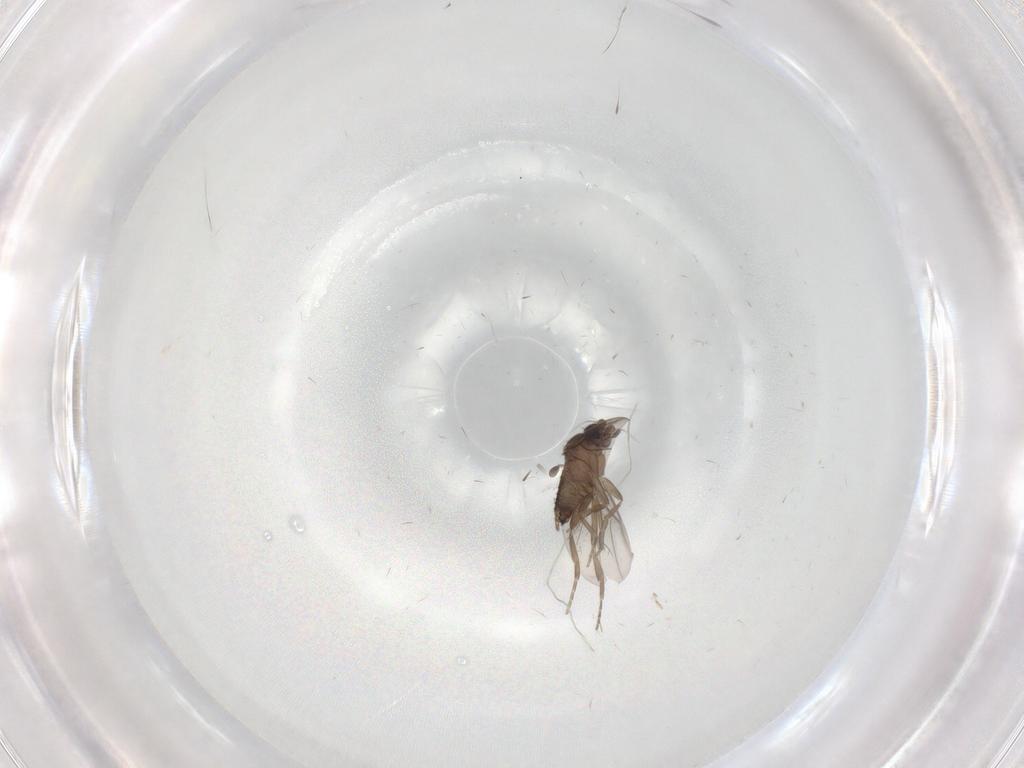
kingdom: Animalia
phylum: Arthropoda
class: Insecta
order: Diptera
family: Chironomidae
